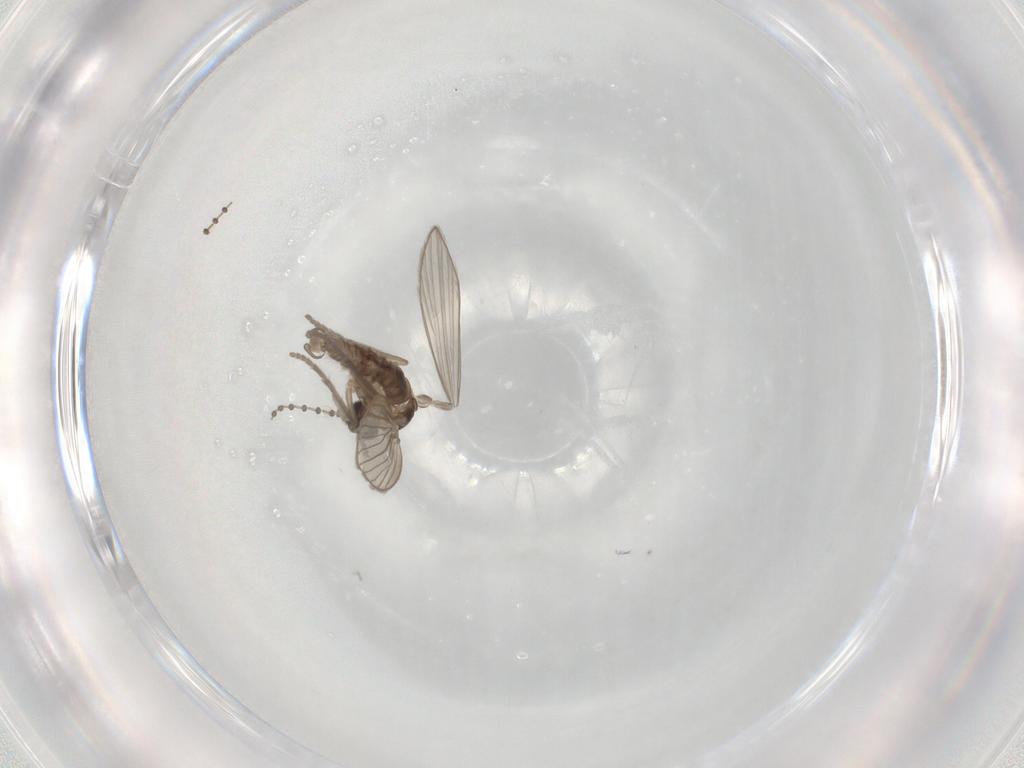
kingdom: Animalia
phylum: Arthropoda
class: Insecta
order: Diptera
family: Psychodidae
